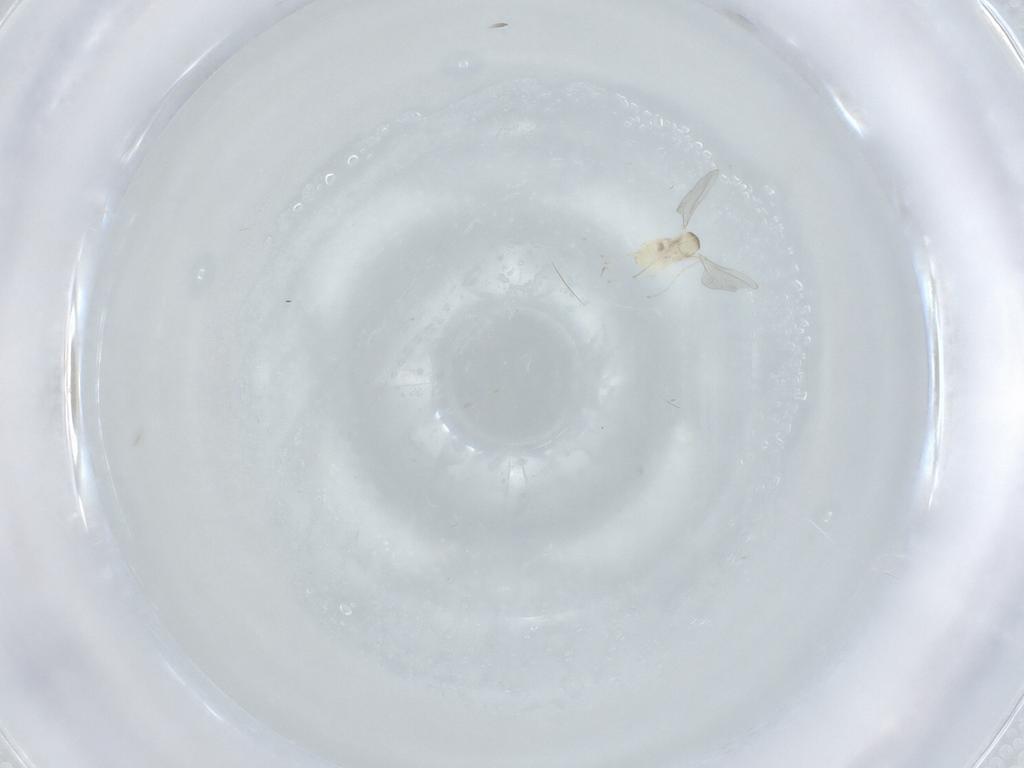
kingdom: Animalia
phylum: Arthropoda
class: Insecta
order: Diptera
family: Cecidomyiidae
